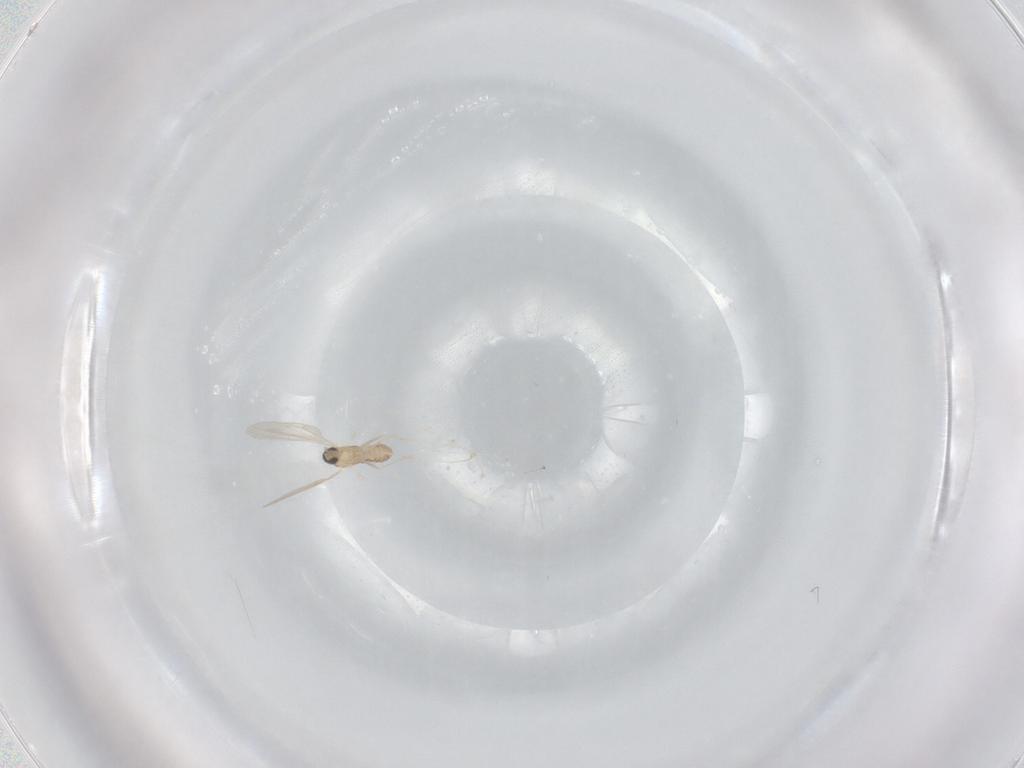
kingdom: Animalia
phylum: Arthropoda
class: Insecta
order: Diptera
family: Cecidomyiidae
